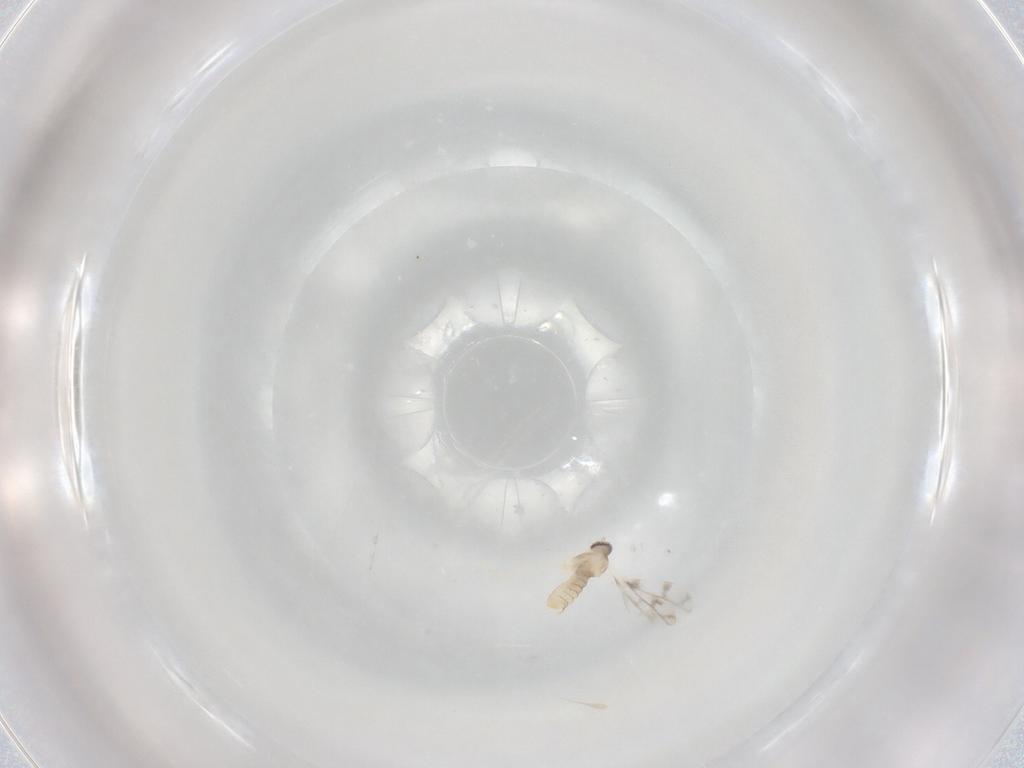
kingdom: Animalia
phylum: Arthropoda
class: Insecta
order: Diptera
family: Cecidomyiidae
